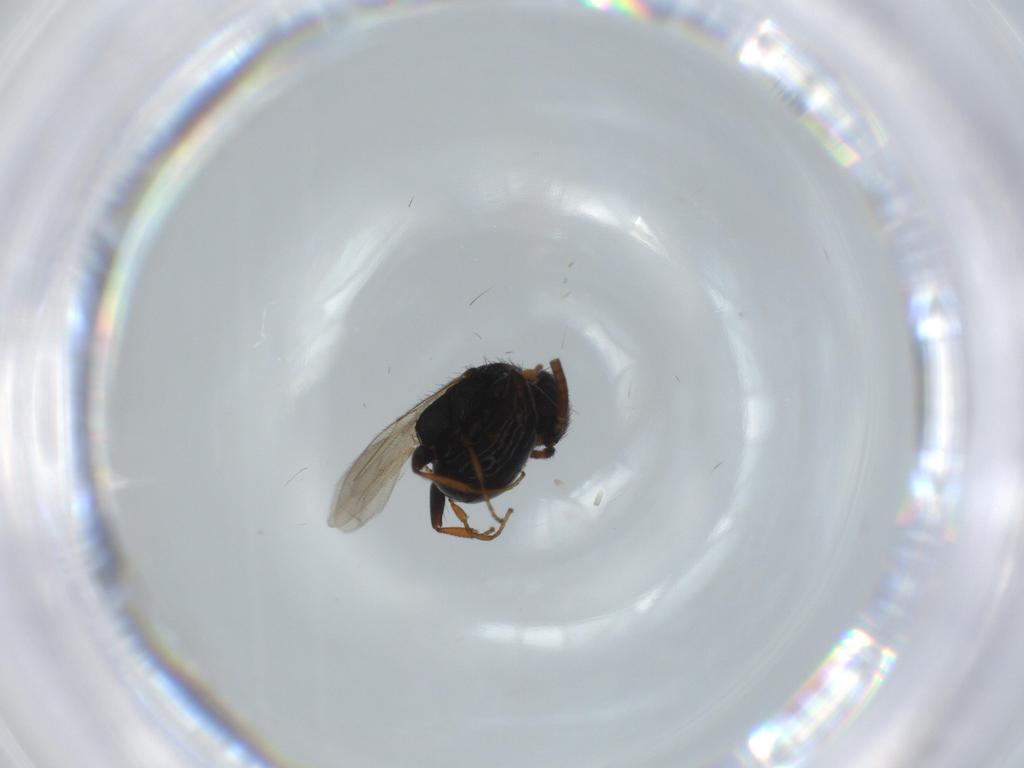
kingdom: Animalia
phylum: Arthropoda
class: Insecta
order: Hymenoptera
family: Bethylidae
